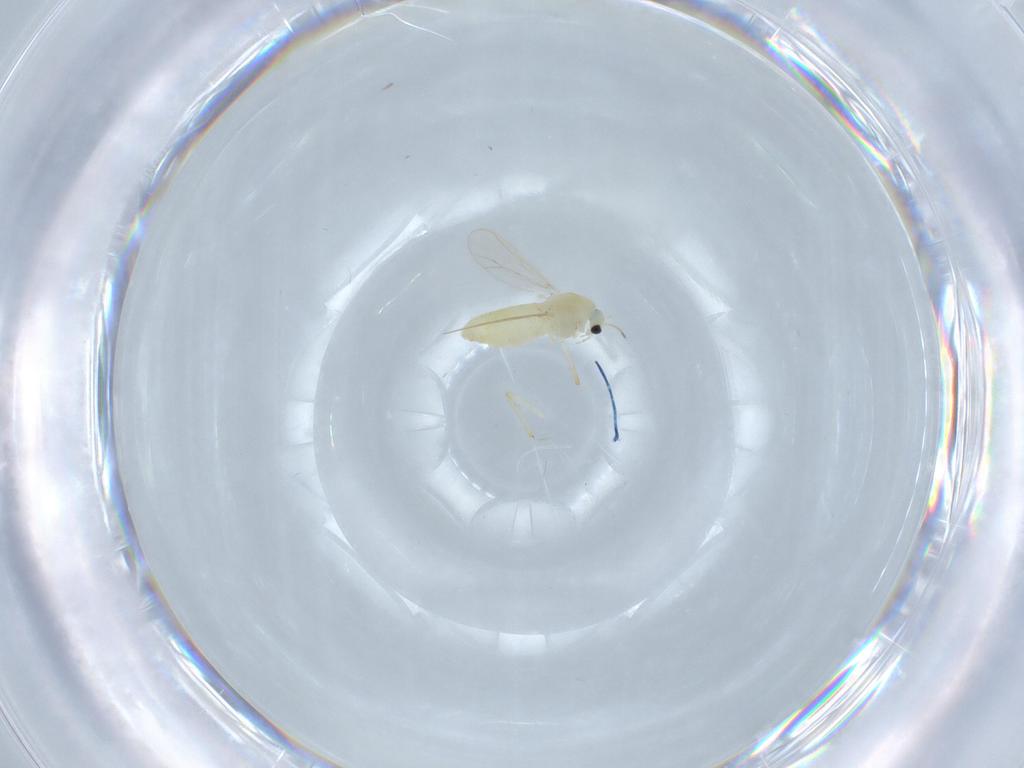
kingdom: Animalia
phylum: Arthropoda
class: Insecta
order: Diptera
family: Chironomidae
